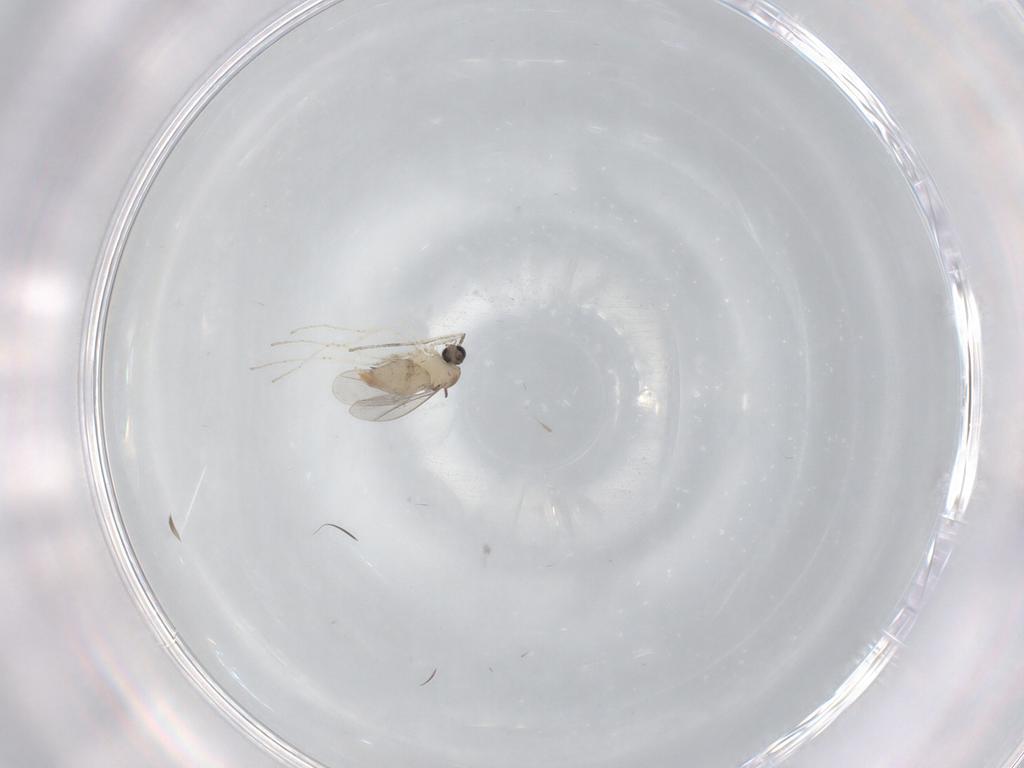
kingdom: Animalia
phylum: Arthropoda
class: Insecta
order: Diptera
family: Cecidomyiidae
